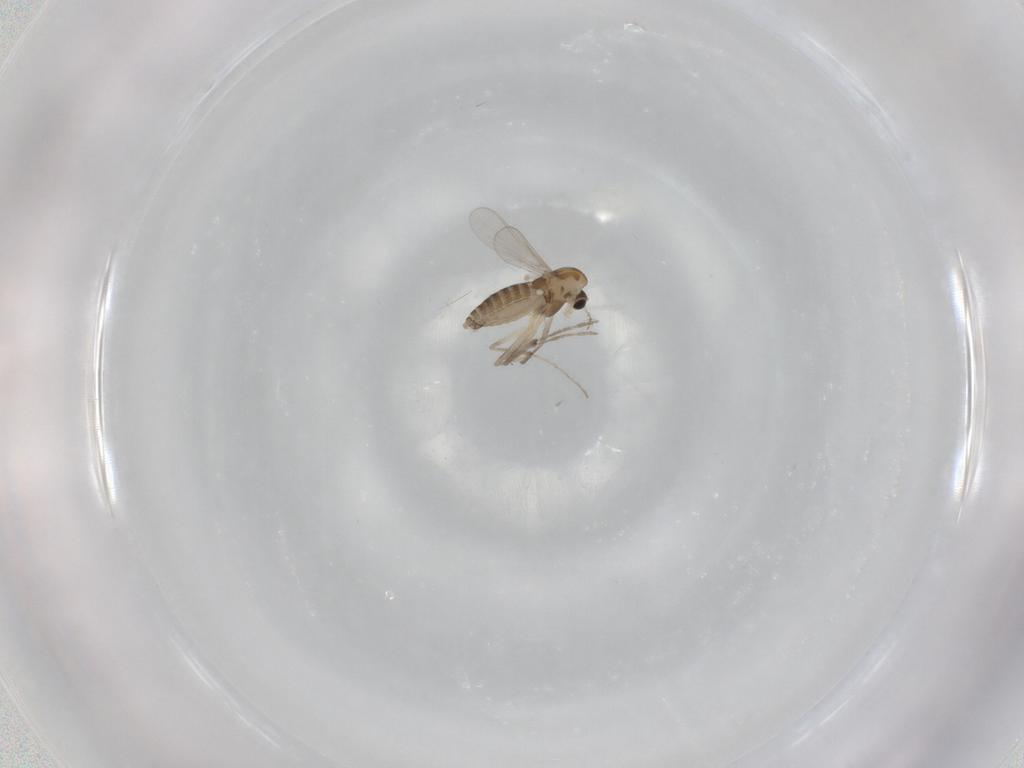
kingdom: Animalia
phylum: Arthropoda
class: Insecta
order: Diptera
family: Chironomidae
